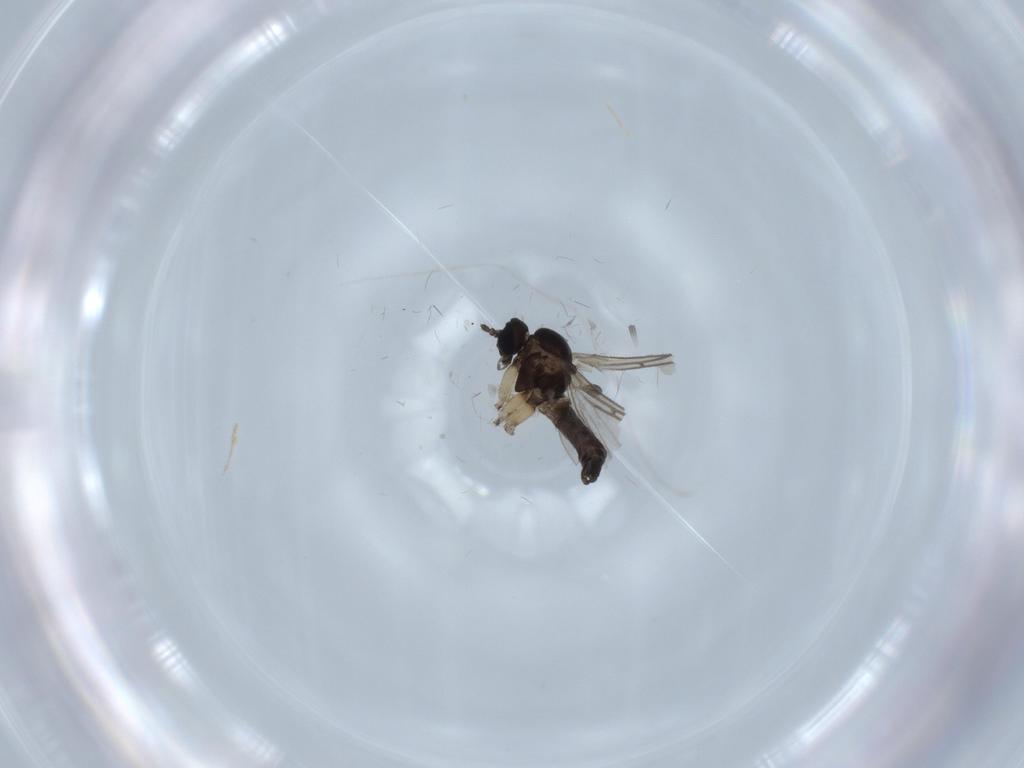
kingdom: Animalia
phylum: Arthropoda
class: Insecta
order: Diptera
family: Sciaridae
